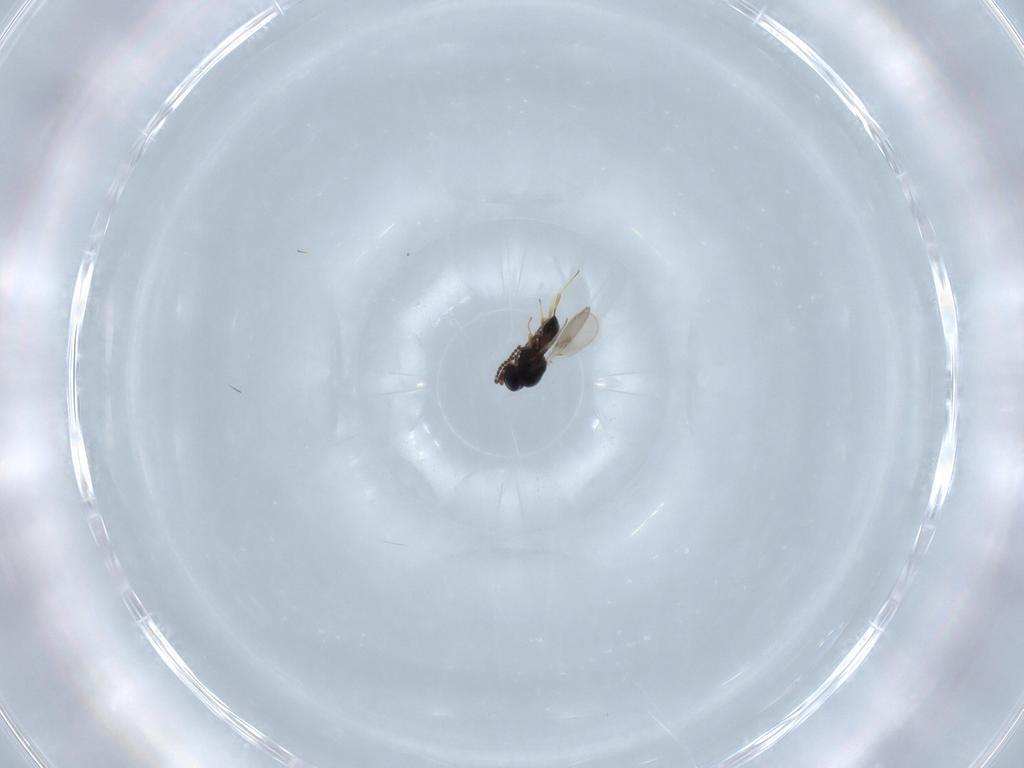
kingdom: Animalia
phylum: Arthropoda
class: Insecta
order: Hymenoptera
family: Scelionidae
